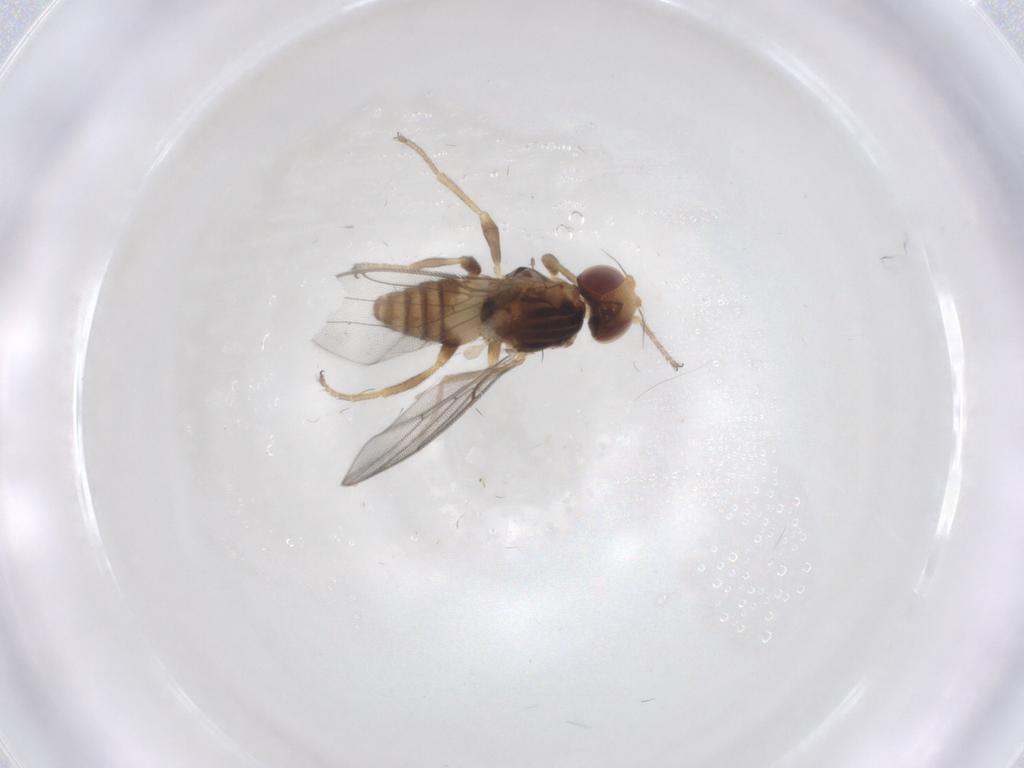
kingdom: Animalia
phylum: Arthropoda
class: Insecta
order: Diptera
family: Chloropidae
